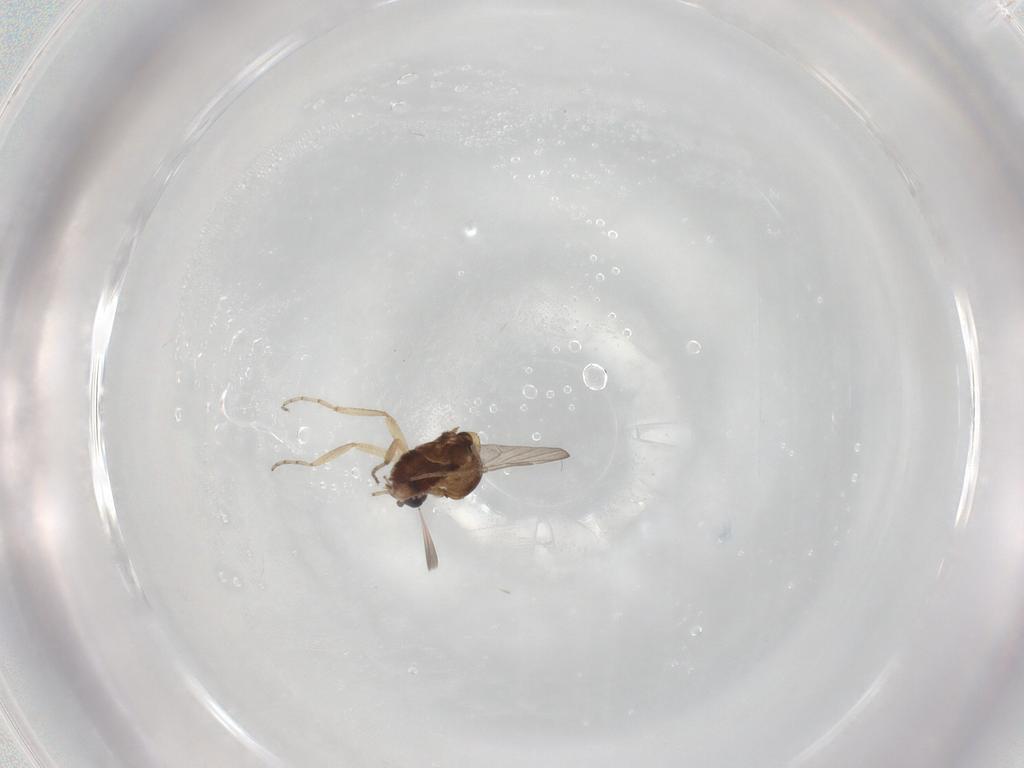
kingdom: Animalia
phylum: Arthropoda
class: Insecta
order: Diptera
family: Ceratopogonidae
